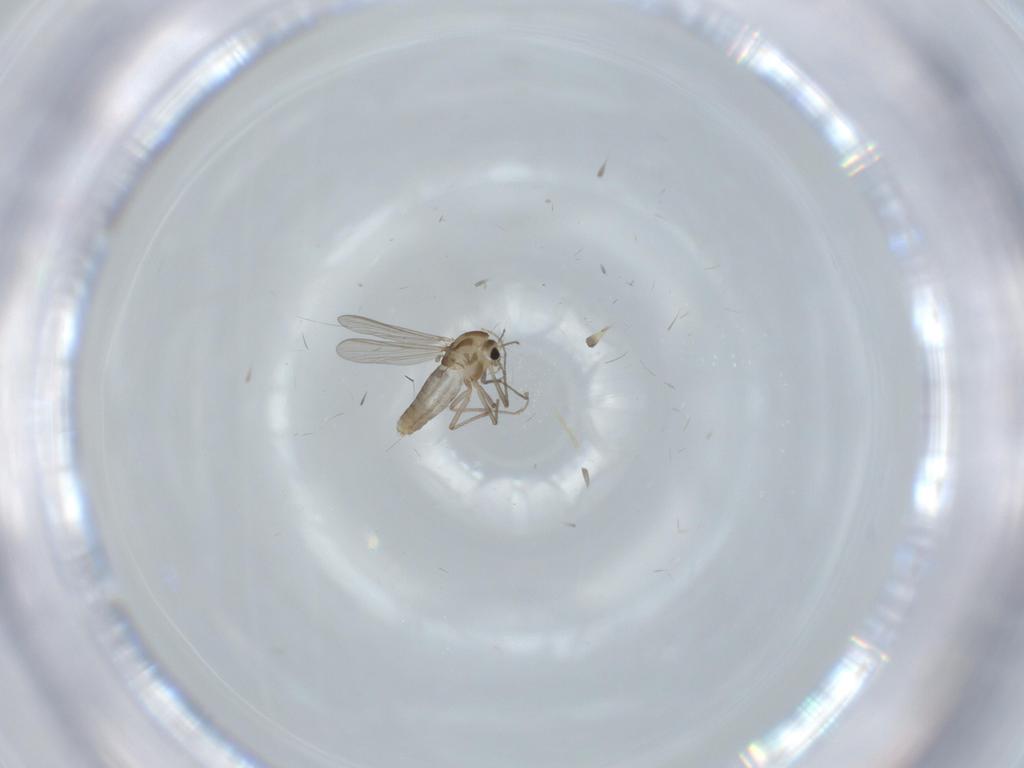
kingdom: Animalia
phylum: Arthropoda
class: Insecta
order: Diptera
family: Chironomidae
